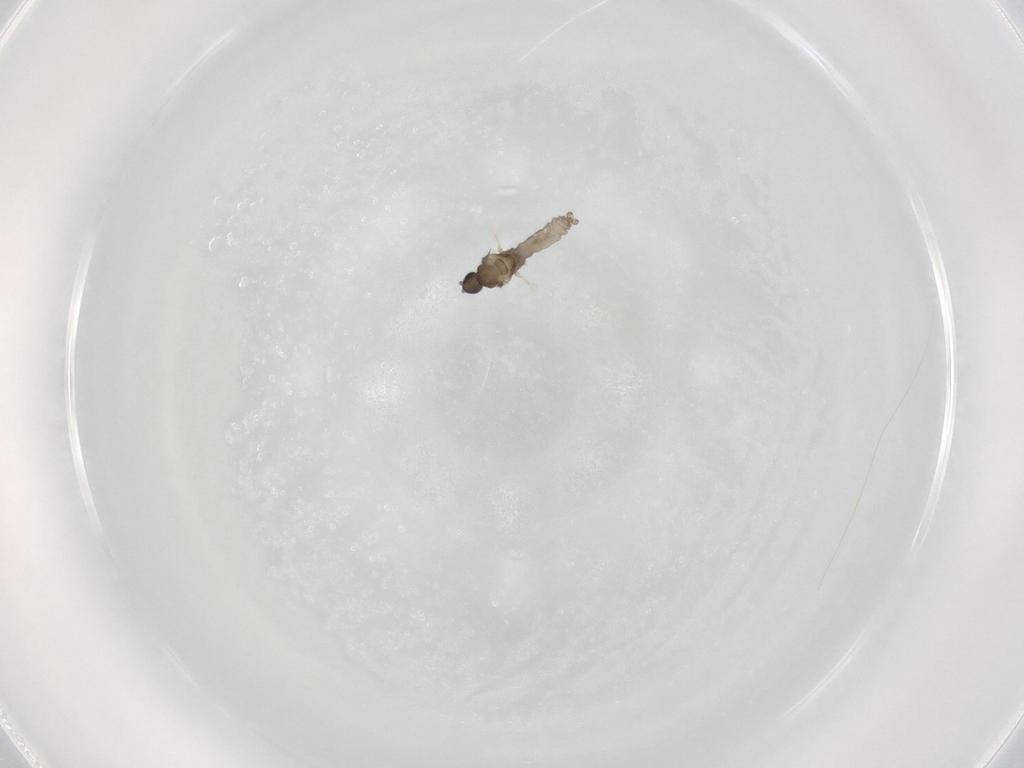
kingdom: Animalia
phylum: Arthropoda
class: Insecta
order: Diptera
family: Cecidomyiidae
